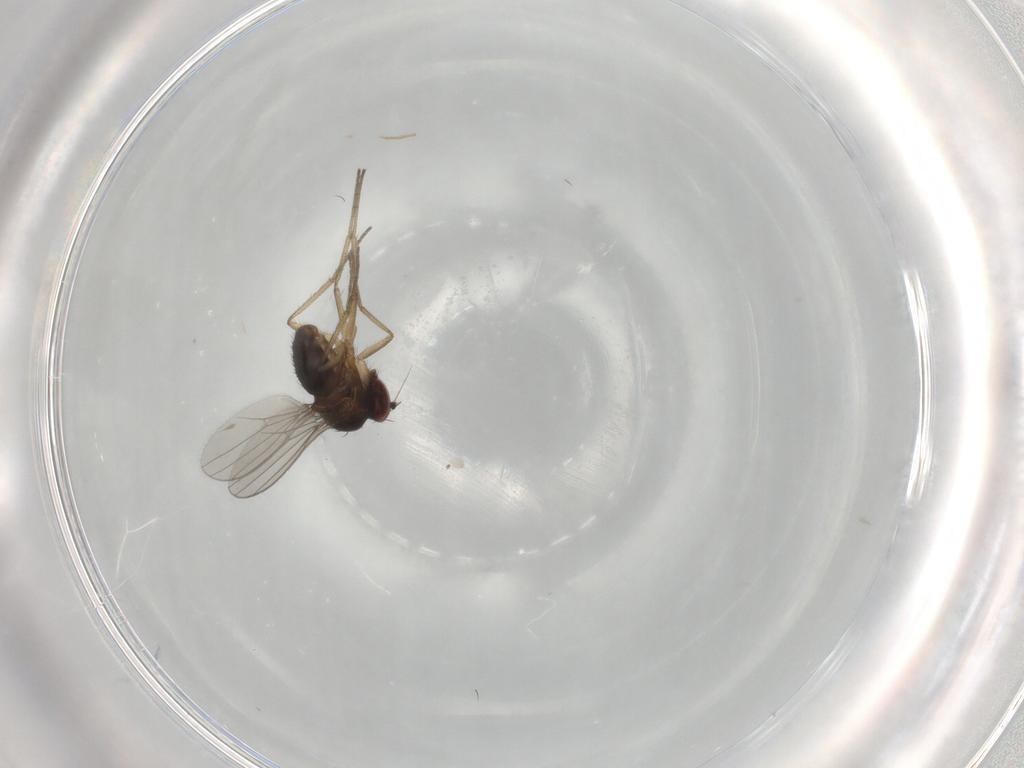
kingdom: Animalia
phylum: Arthropoda
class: Insecta
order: Diptera
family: Dolichopodidae
